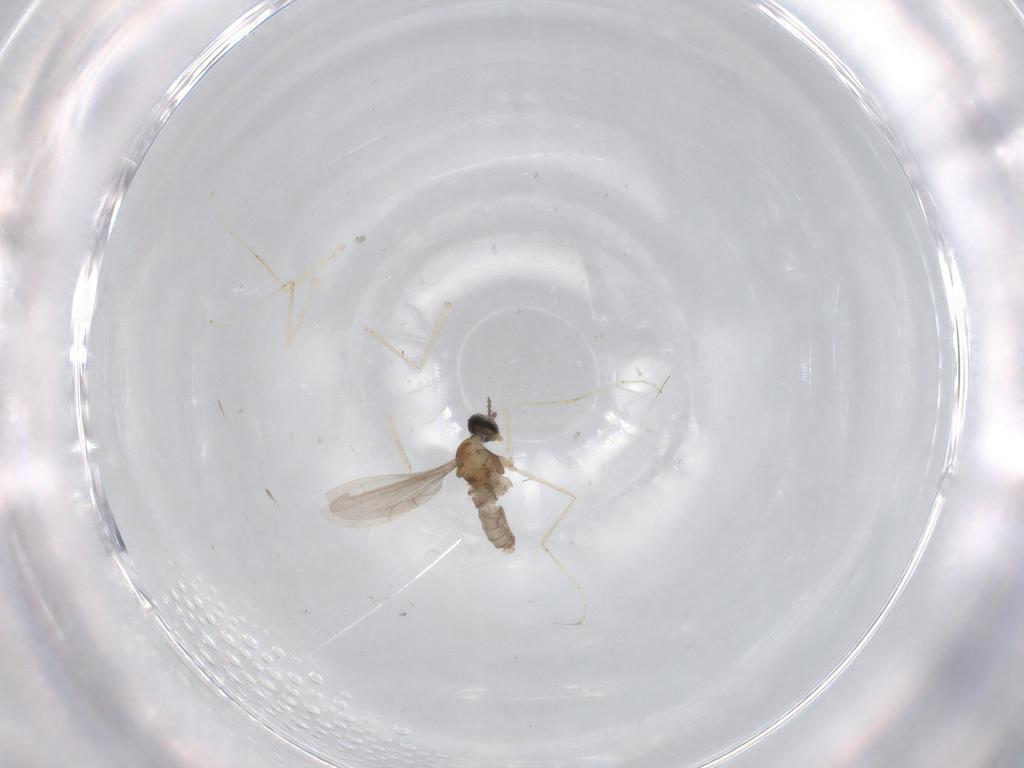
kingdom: Animalia
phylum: Arthropoda
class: Insecta
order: Diptera
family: Cecidomyiidae
